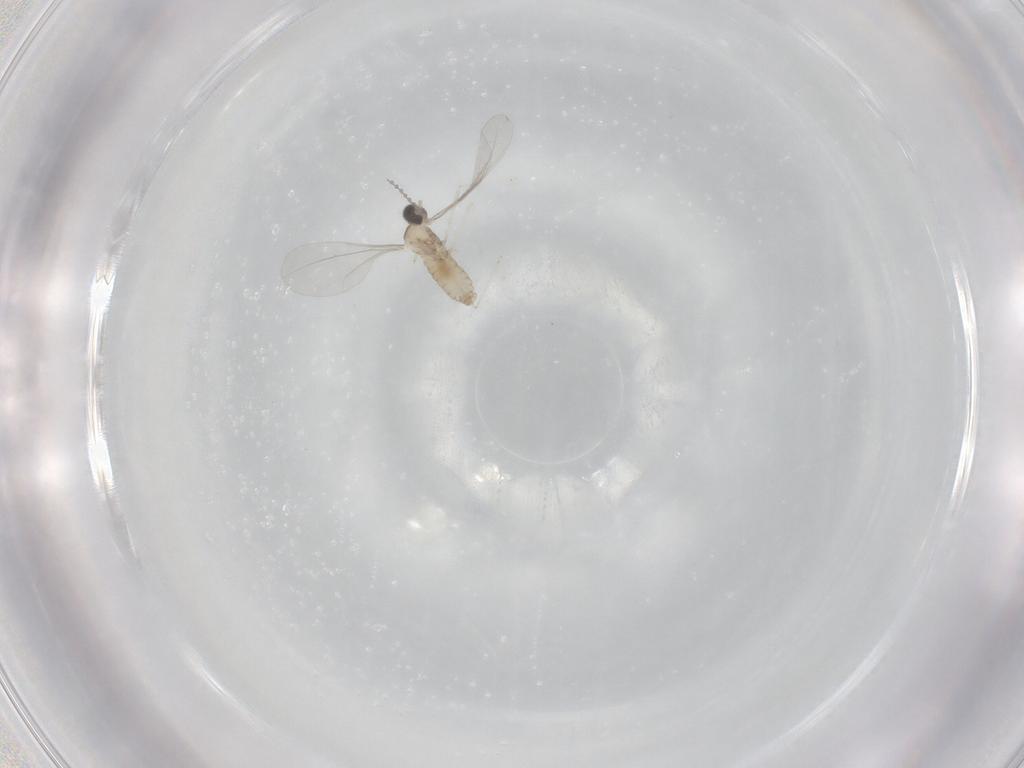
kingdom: Animalia
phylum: Arthropoda
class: Insecta
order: Diptera
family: Cecidomyiidae
